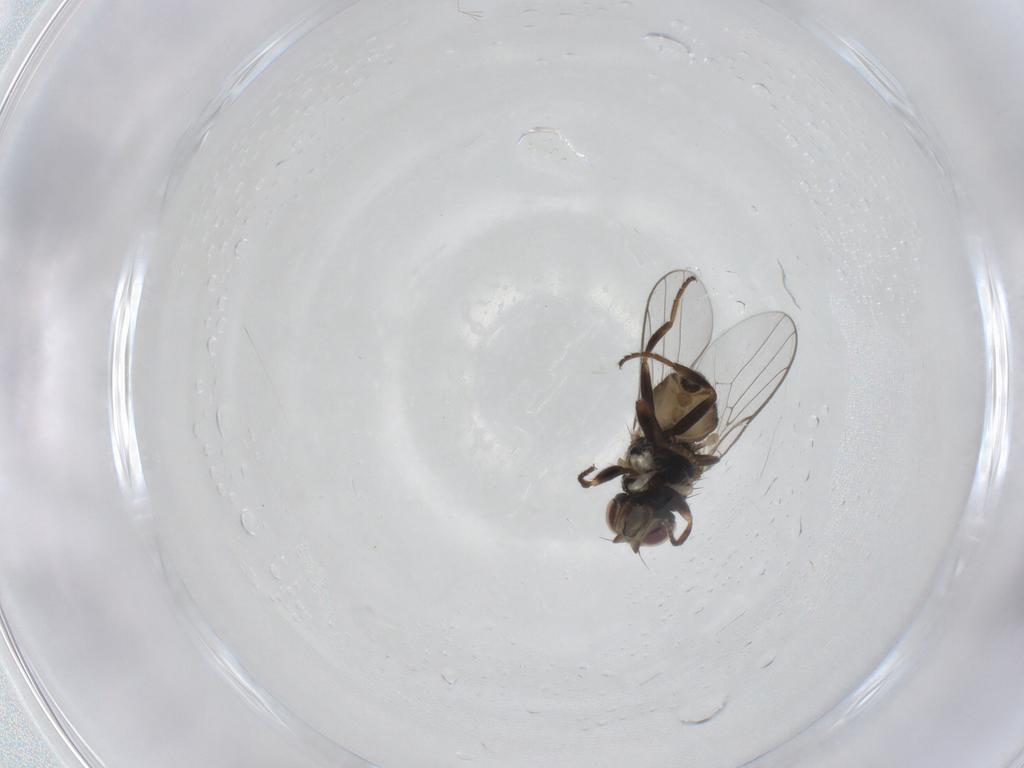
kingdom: Animalia
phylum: Arthropoda
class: Insecta
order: Diptera
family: Chloropidae
